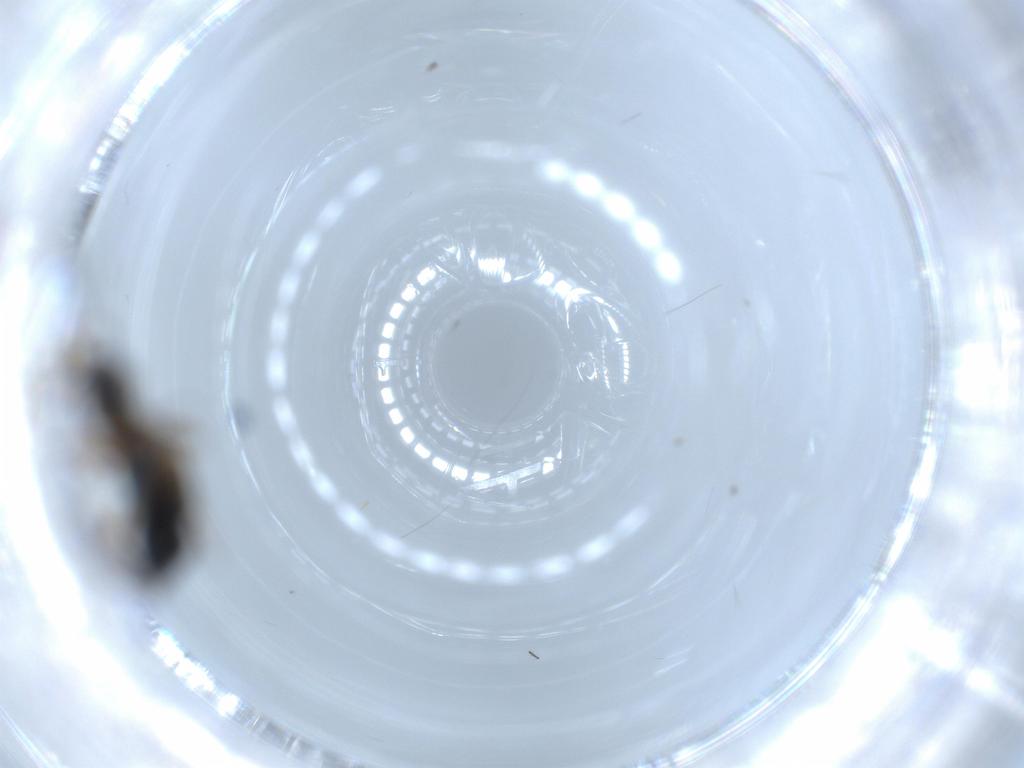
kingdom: Animalia
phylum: Arthropoda
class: Insecta
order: Hymenoptera
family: Figitidae
